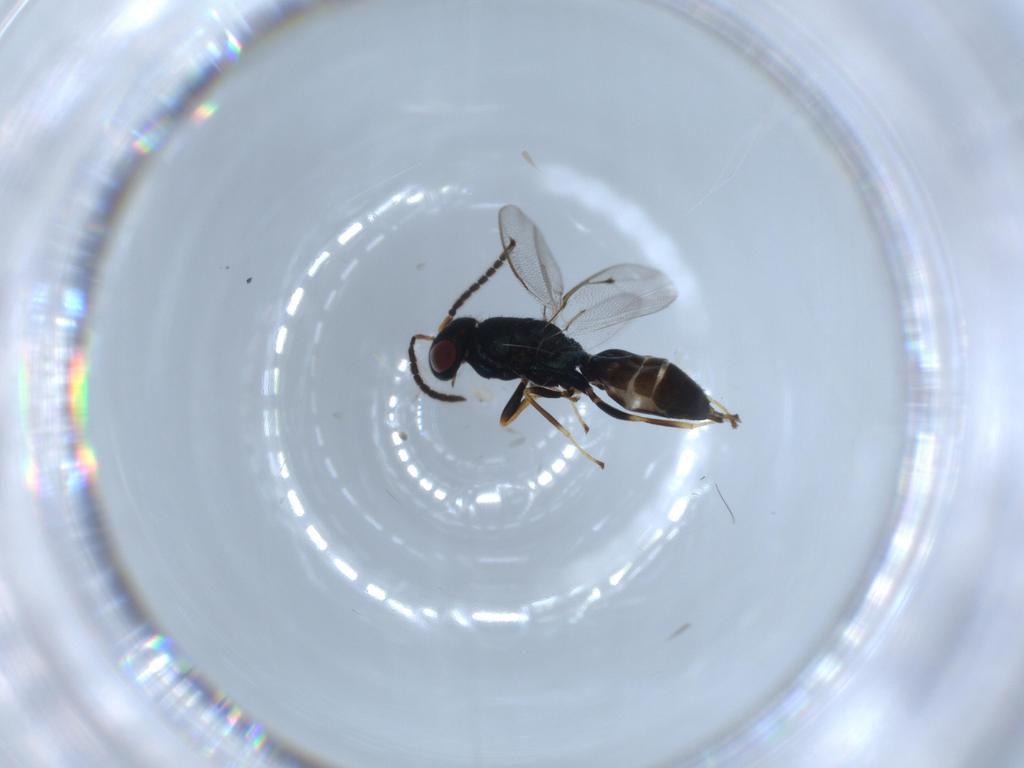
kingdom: Animalia
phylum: Arthropoda
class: Insecta
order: Hymenoptera
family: Pteromalidae
